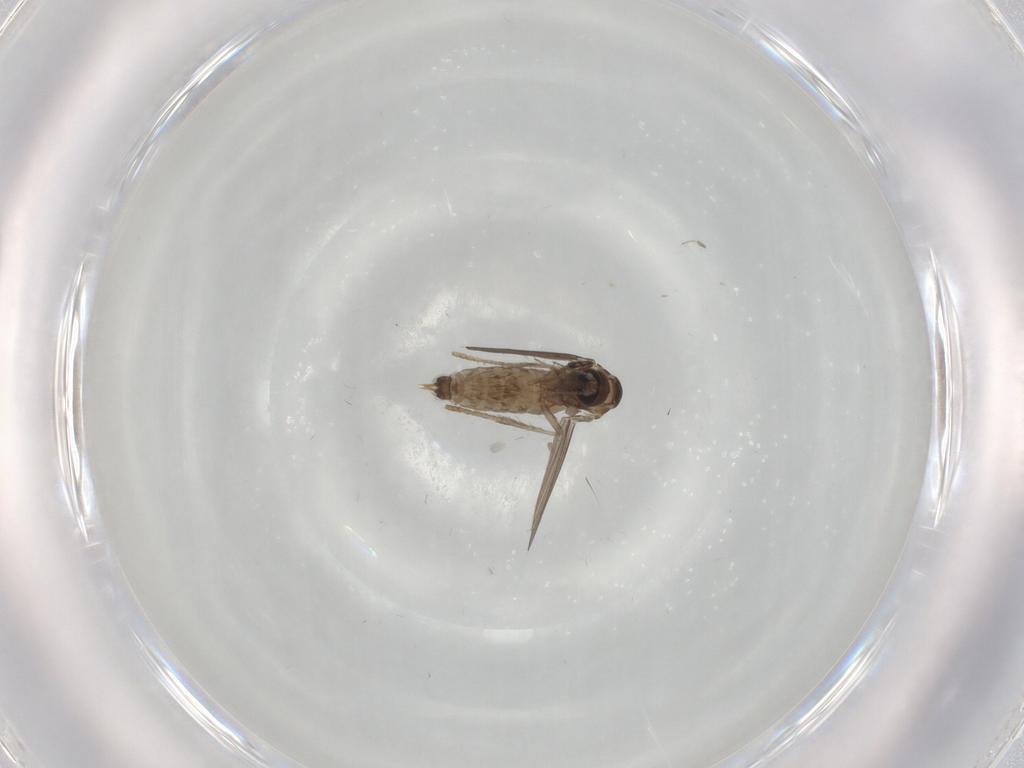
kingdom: Animalia
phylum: Arthropoda
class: Insecta
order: Diptera
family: Psychodidae
